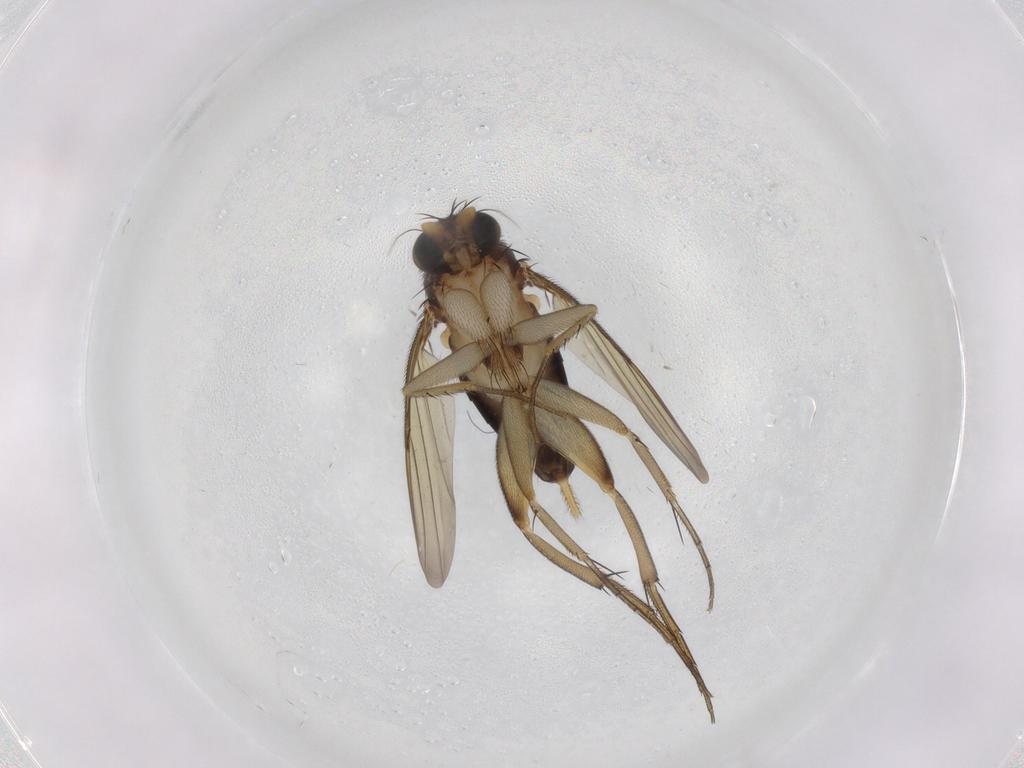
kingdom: Animalia
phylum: Arthropoda
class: Insecta
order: Diptera
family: Phoridae
